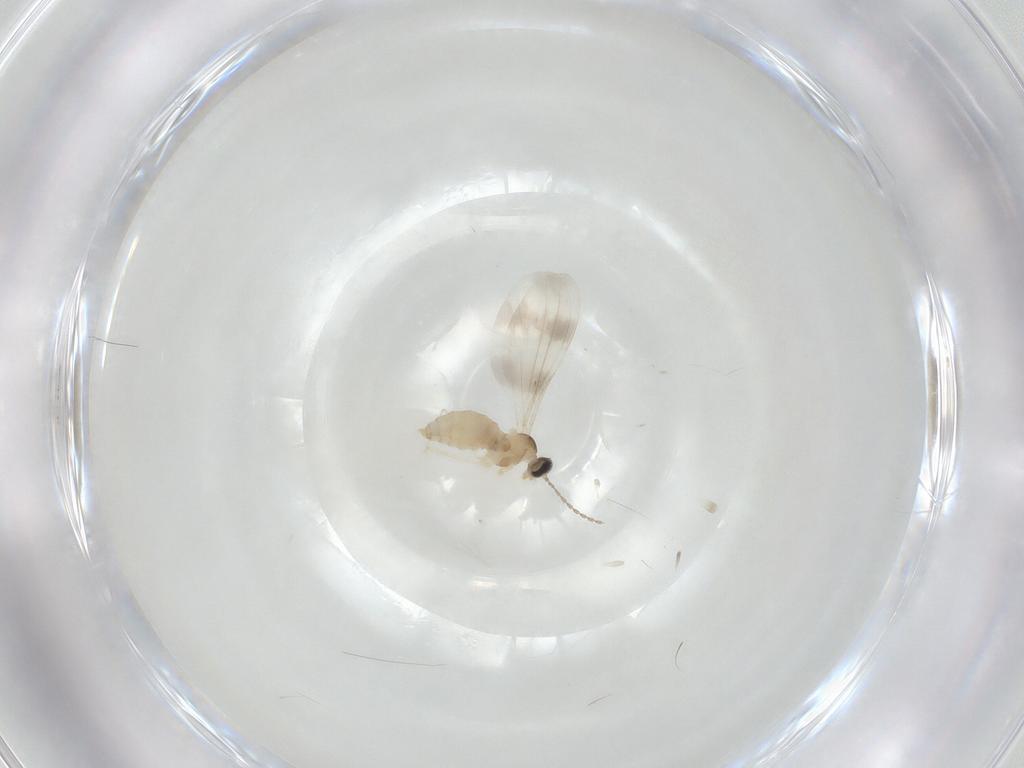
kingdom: Animalia
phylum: Arthropoda
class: Insecta
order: Diptera
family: Cecidomyiidae
